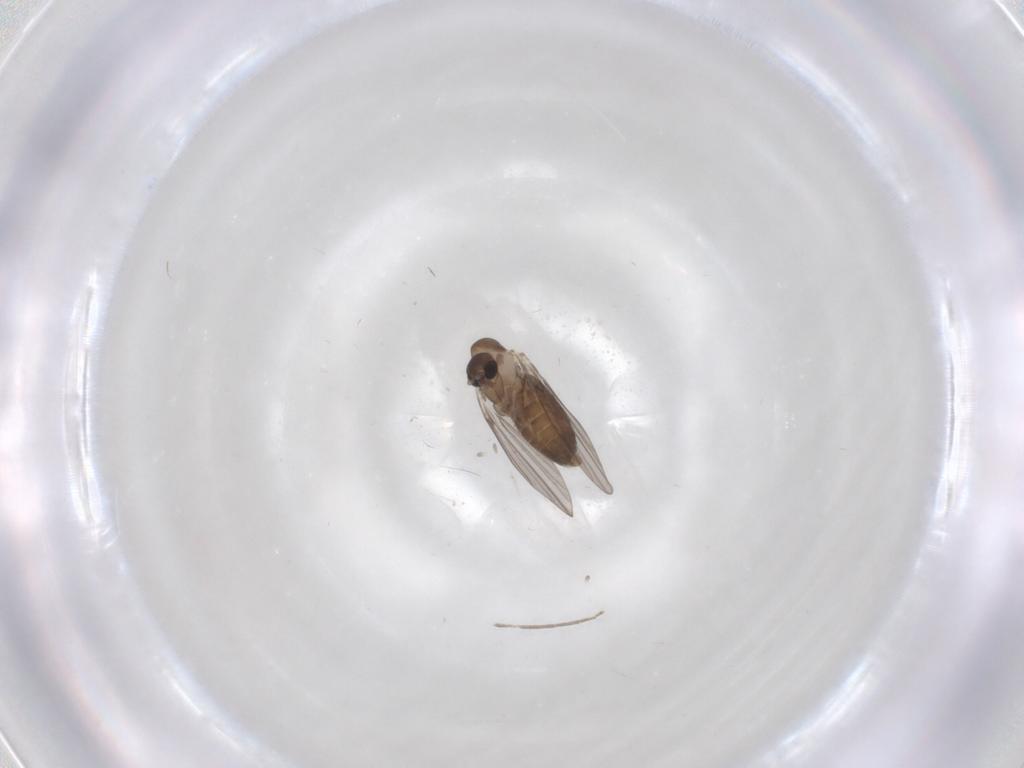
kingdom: Animalia
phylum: Arthropoda
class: Insecta
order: Diptera
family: Psychodidae
